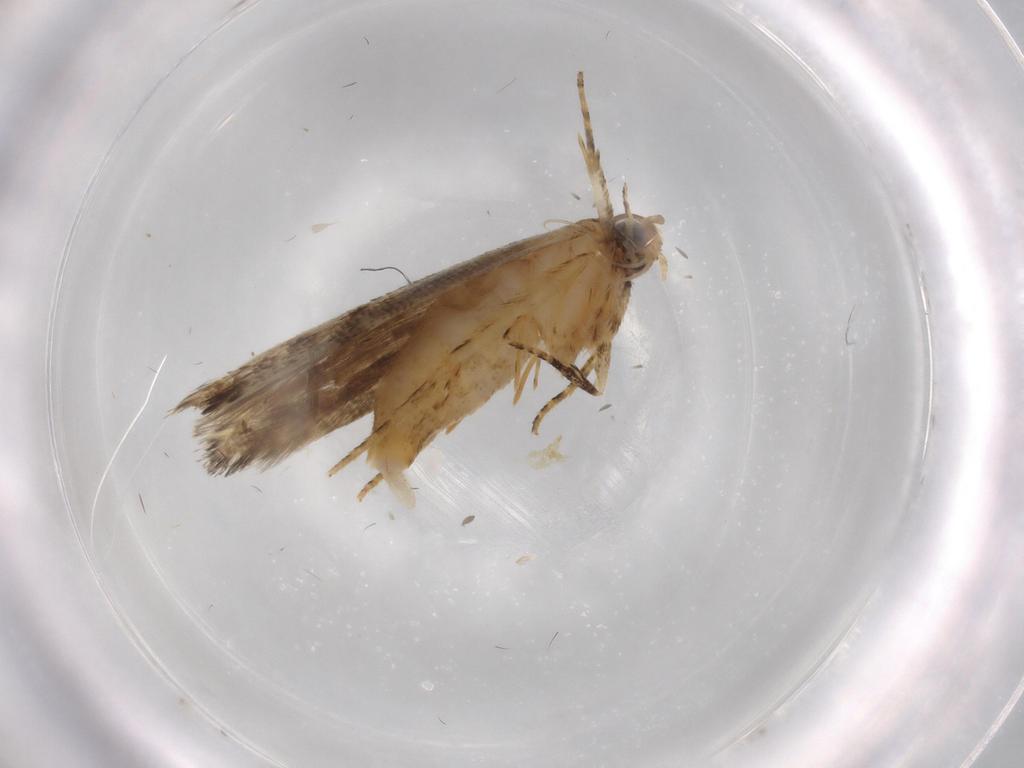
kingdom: Animalia
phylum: Arthropoda
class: Insecta
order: Lepidoptera
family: Gelechiidae
